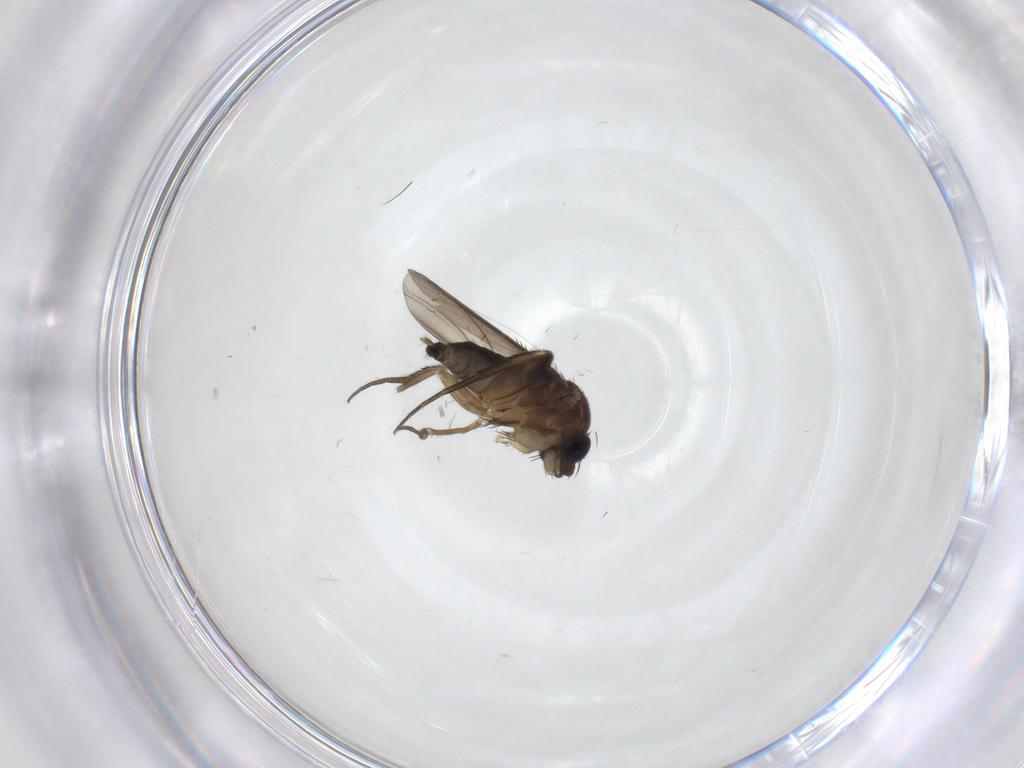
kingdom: Animalia
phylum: Arthropoda
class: Insecta
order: Diptera
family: Phoridae
